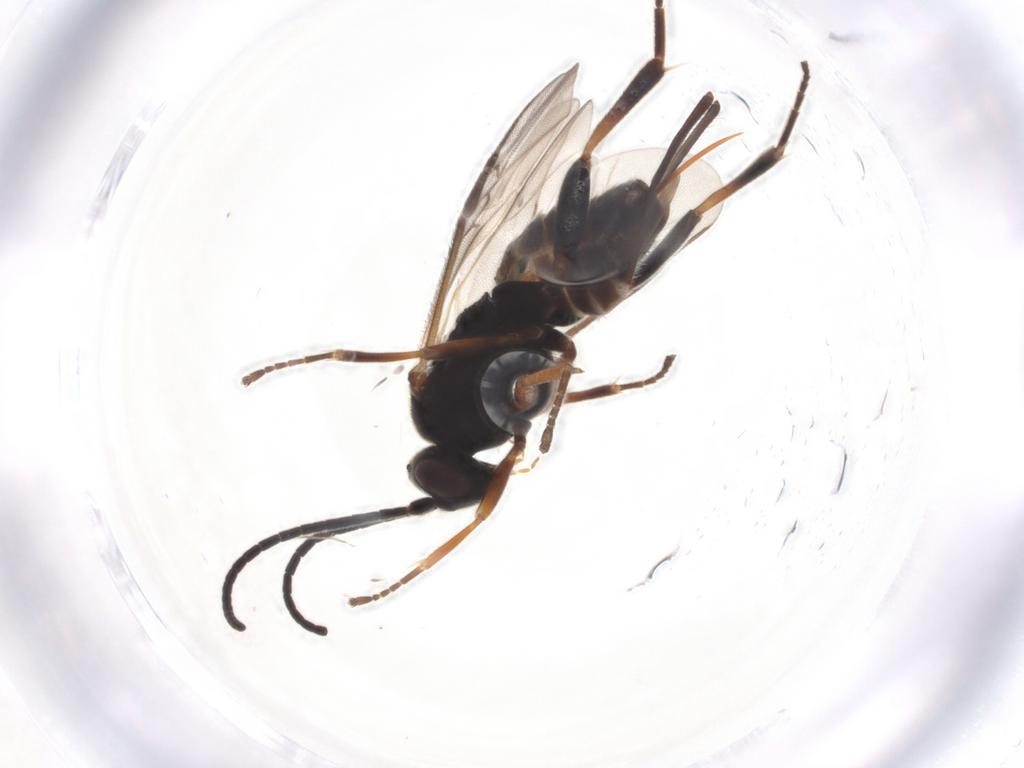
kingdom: Animalia
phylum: Arthropoda
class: Insecta
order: Hymenoptera
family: Braconidae
